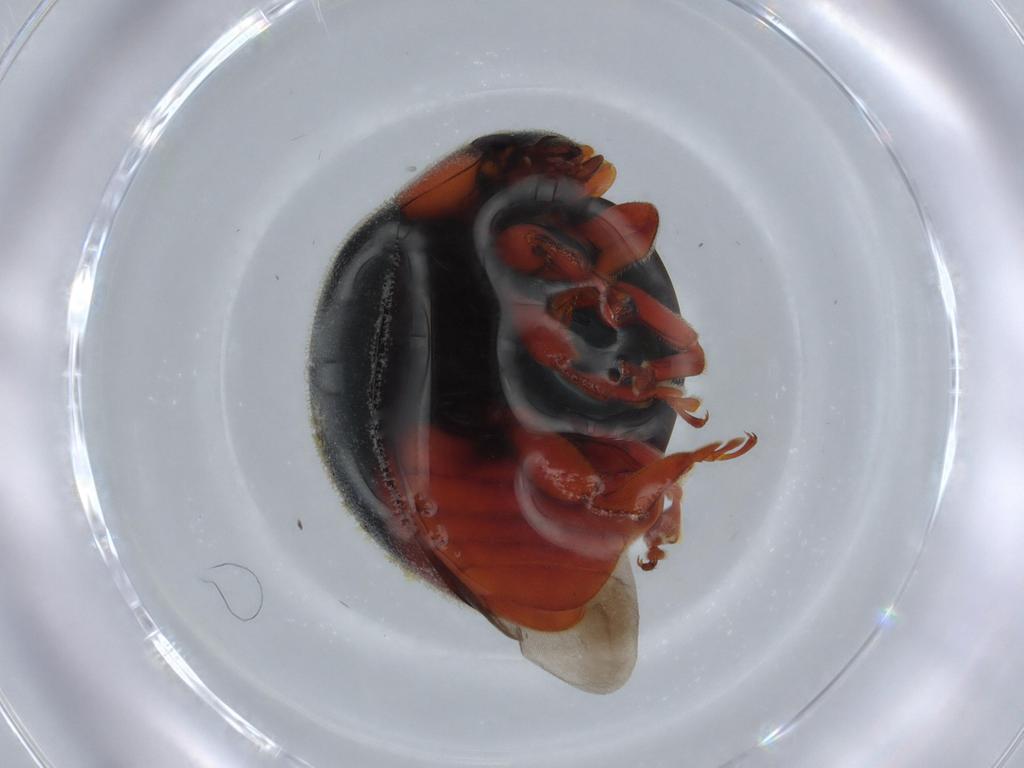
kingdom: Animalia
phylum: Arthropoda
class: Insecta
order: Coleoptera
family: Coccinellidae
